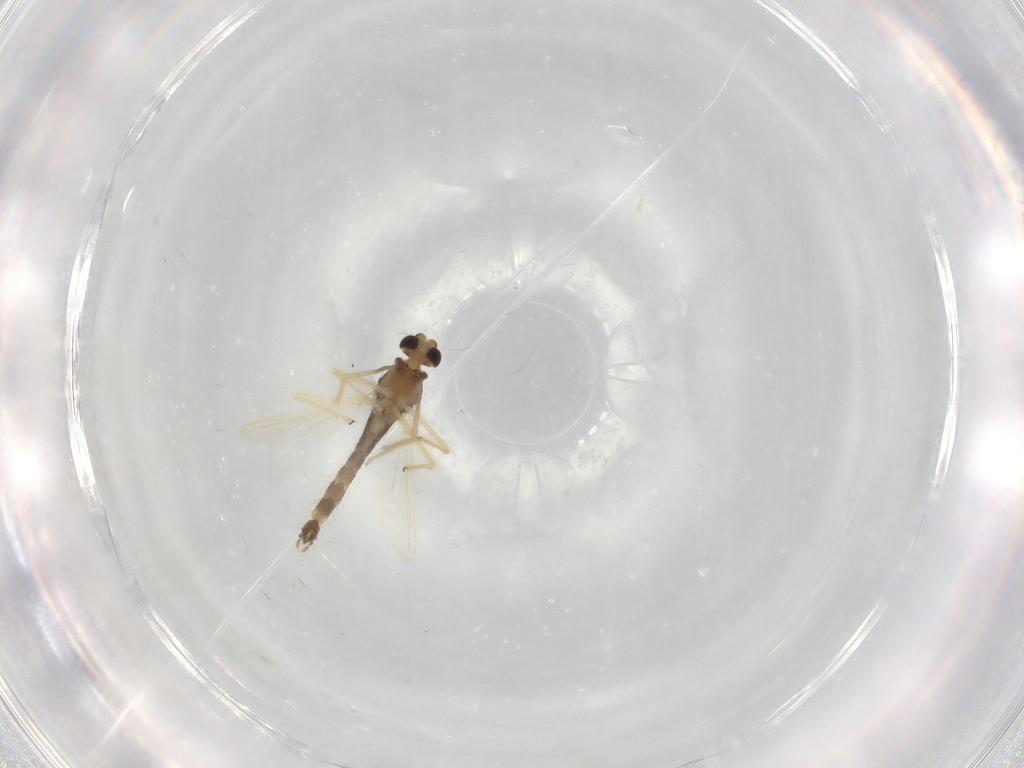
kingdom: Animalia
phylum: Arthropoda
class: Insecta
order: Diptera
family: Chironomidae
